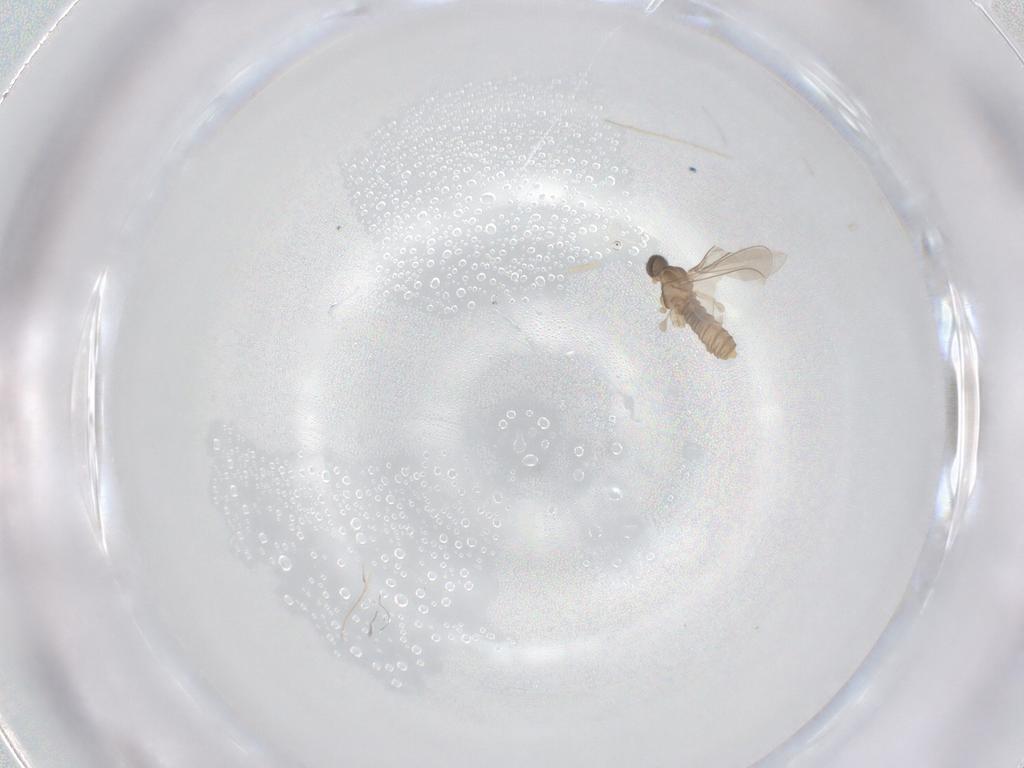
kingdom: Animalia
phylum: Arthropoda
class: Insecta
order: Diptera
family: Cecidomyiidae
